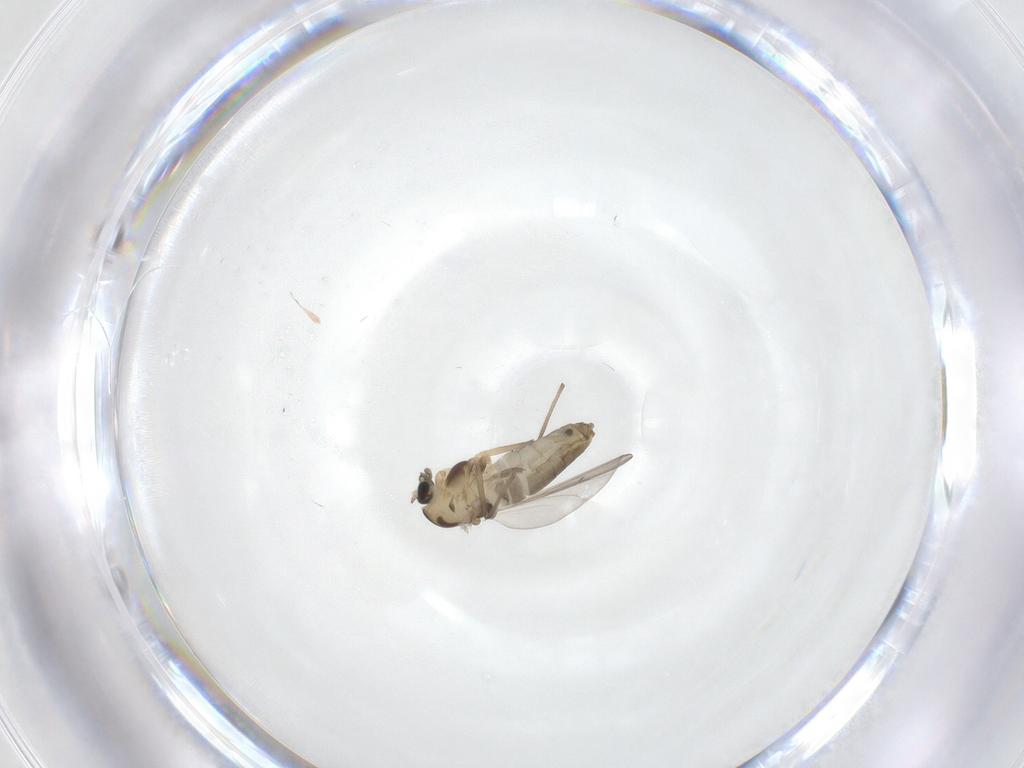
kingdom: Animalia
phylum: Arthropoda
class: Insecta
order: Diptera
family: Chironomidae
